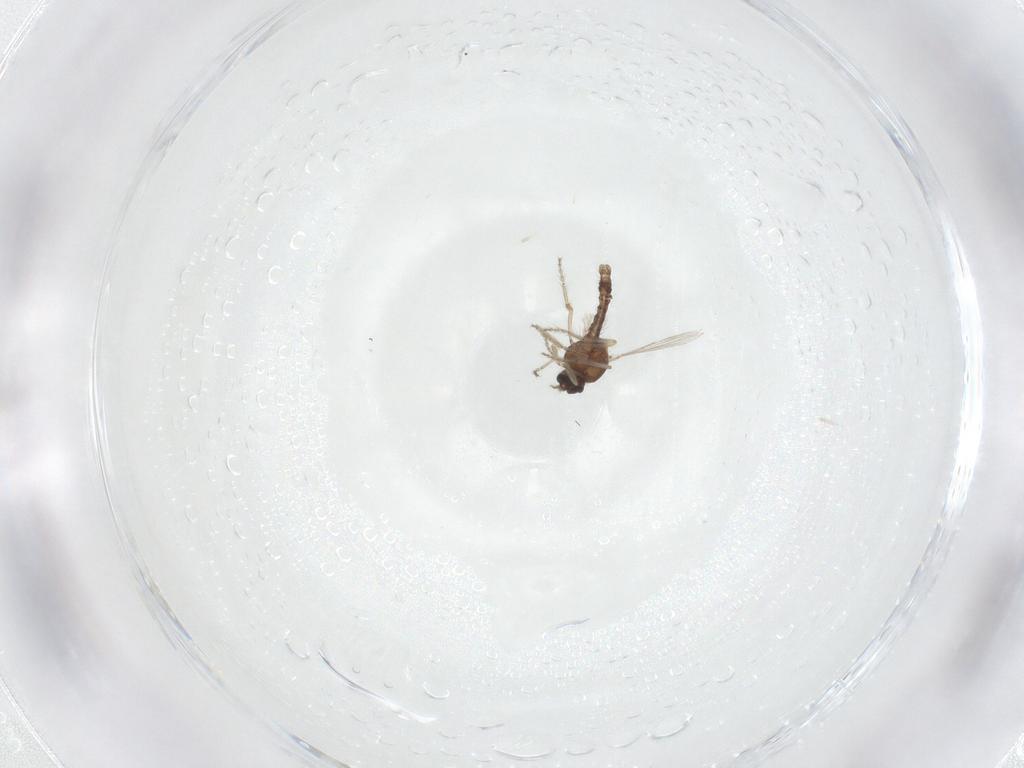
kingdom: Animalia
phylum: Arthropoda
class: Insecta
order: Diptera
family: Ceratopogonidae
